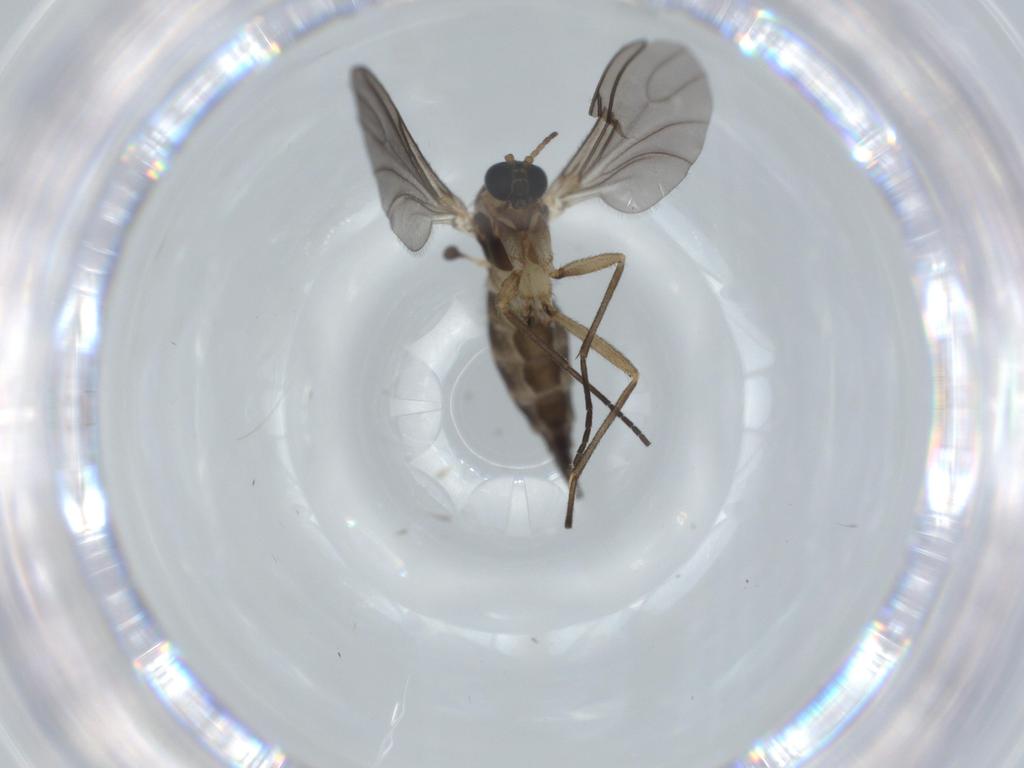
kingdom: Animalia
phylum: Arthropoda
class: Insecta
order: Diptera
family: Sciaridae
